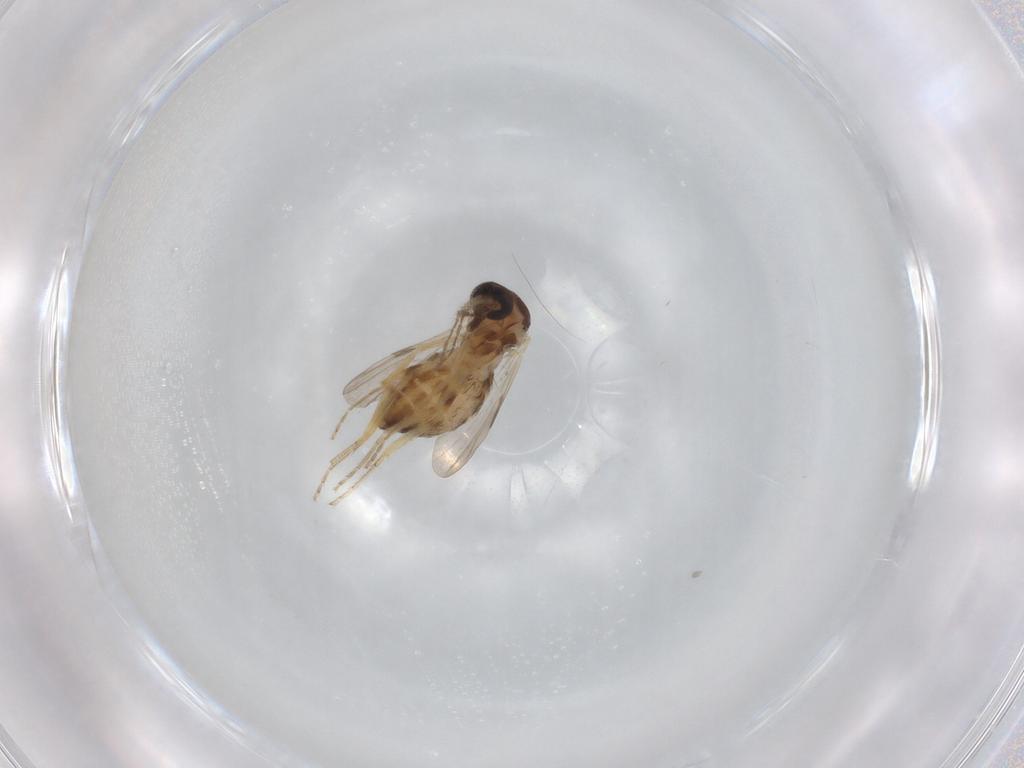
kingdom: Animalia
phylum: Arthropoda
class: Insecta
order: Diptera
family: Ceratopogonidae
